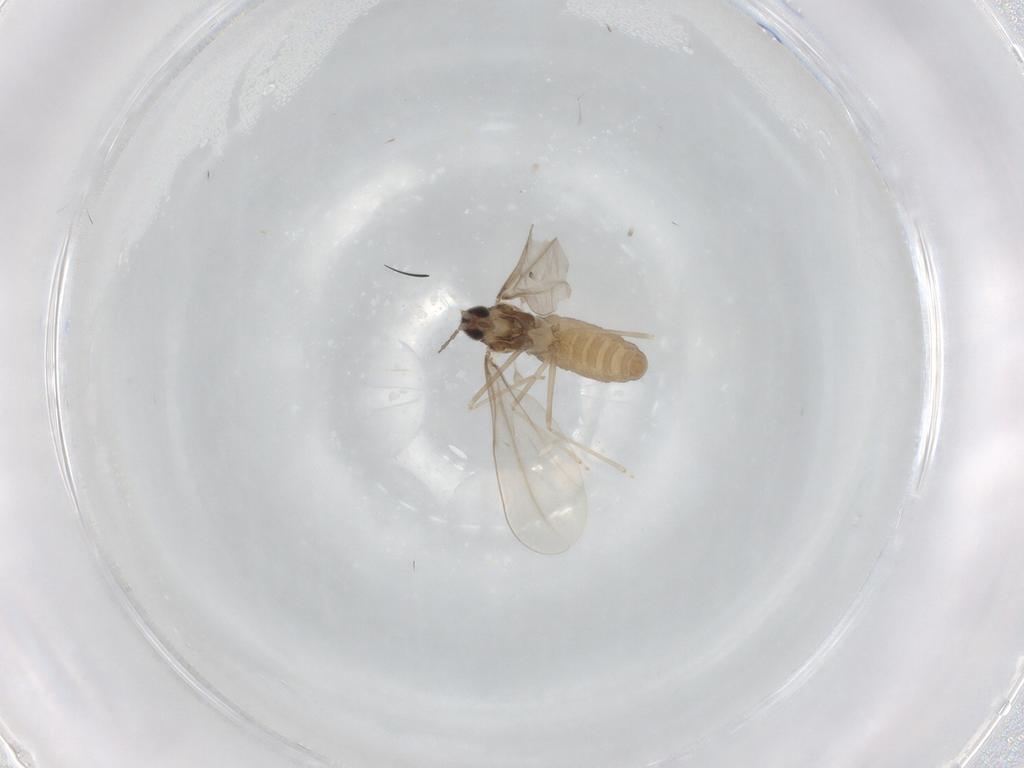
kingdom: Animalia
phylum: Arthropoda
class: Insecta
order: Diptera
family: Cecidomyiidae
